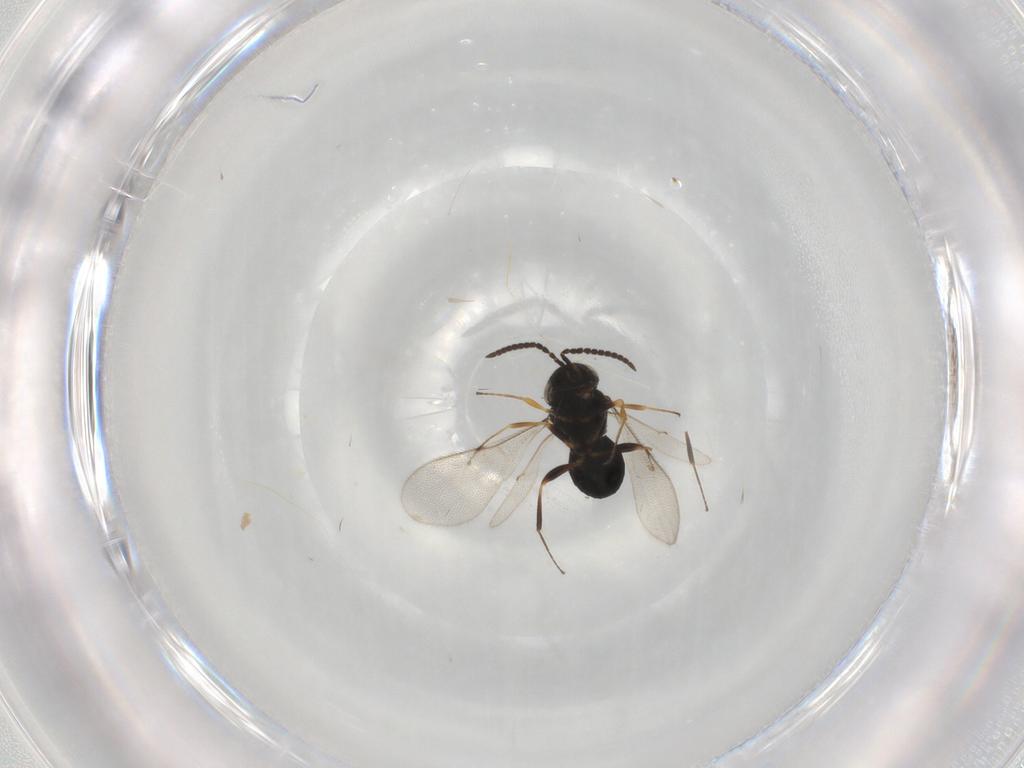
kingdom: Animalia
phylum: Arthropoda
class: Insecta
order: Hymenoptera
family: Scelionidae
